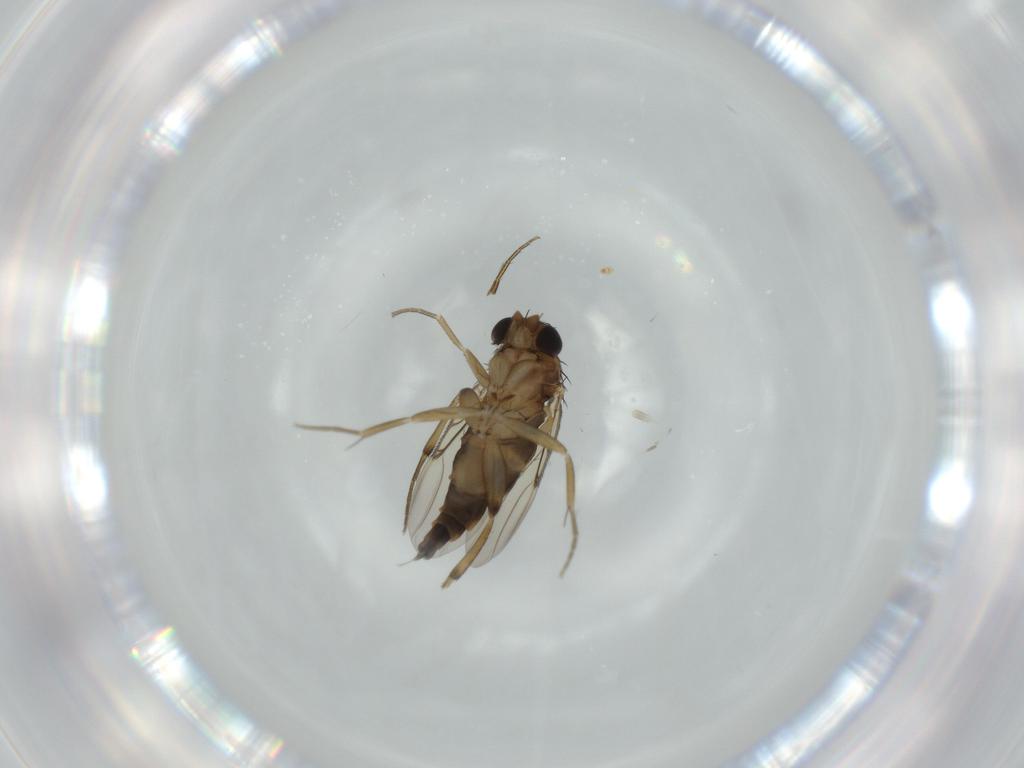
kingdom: Animalia
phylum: Arthropoda
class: Insecta
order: Diptera
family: Phoridae
